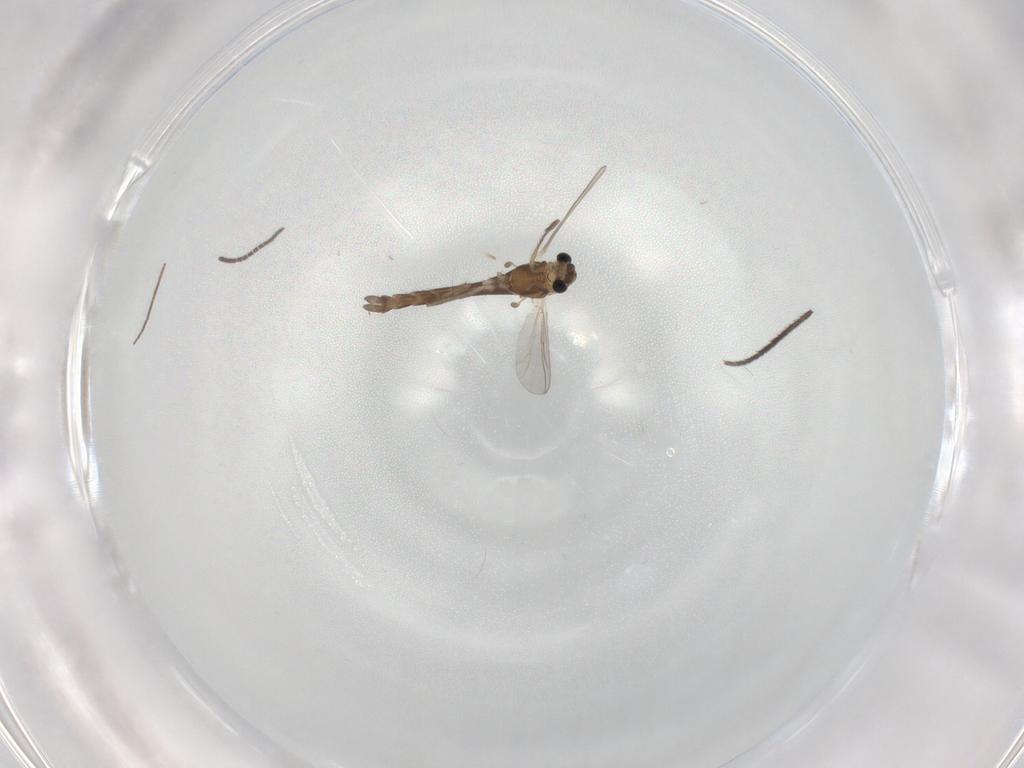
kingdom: Animalia
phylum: Arthropoda
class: Insecta
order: Diptera
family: Chironomidae
